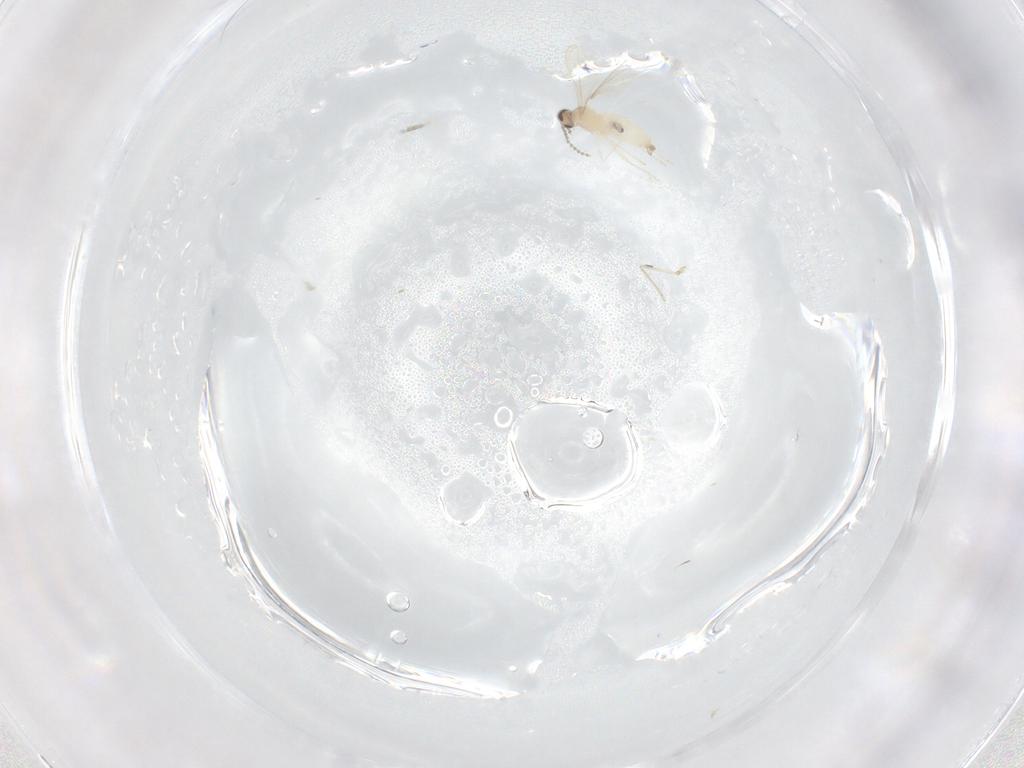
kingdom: Animalia
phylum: Arthropoda
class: Insecta
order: Diptera
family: Cecidomyiidae
